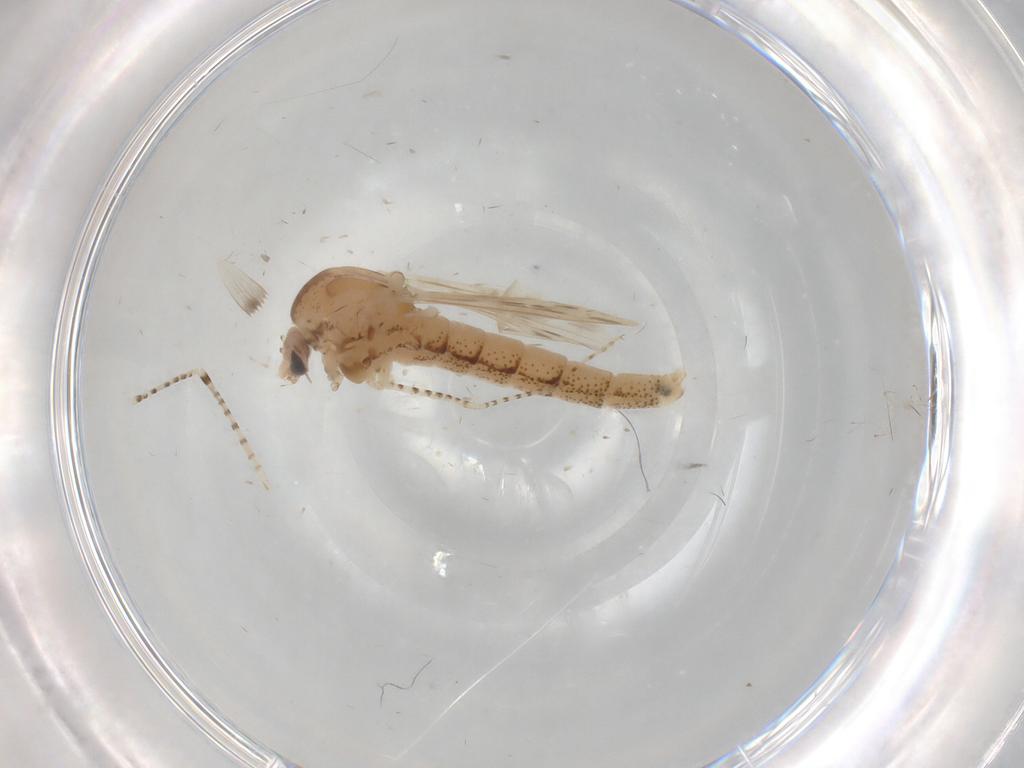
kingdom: Animalia
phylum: Arthropoda
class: Insecta
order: Diptera
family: Chaoboridae
